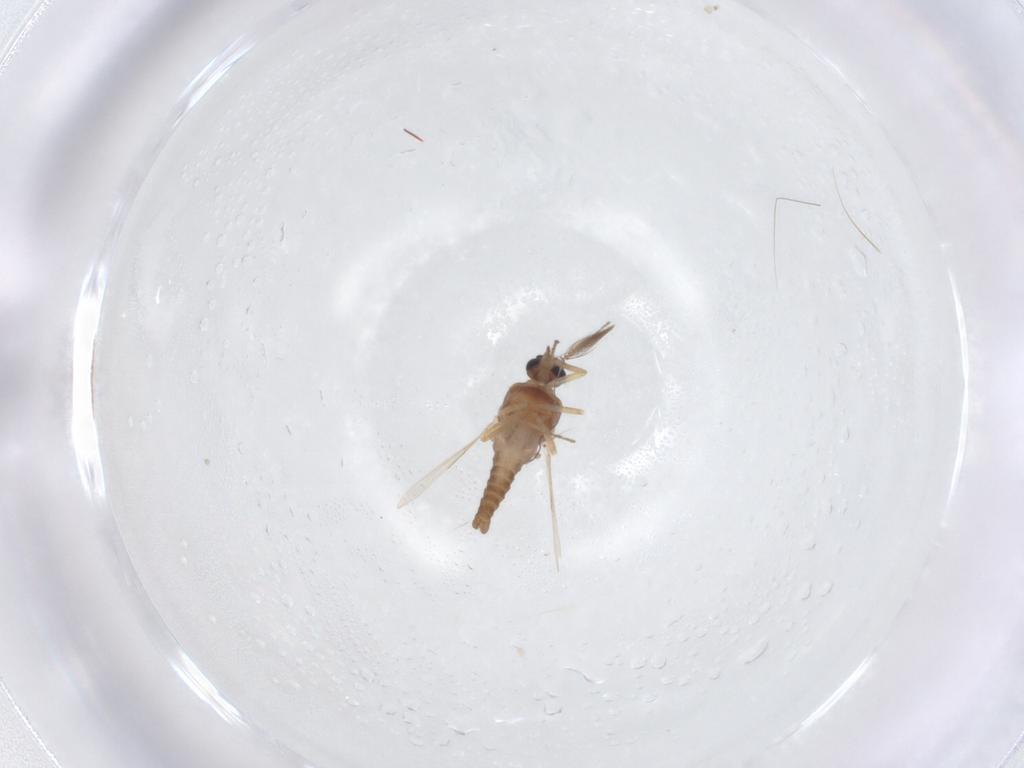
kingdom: Animalia
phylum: Arthropoda
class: Insecta
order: Diptera
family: Ceratopogonidae
